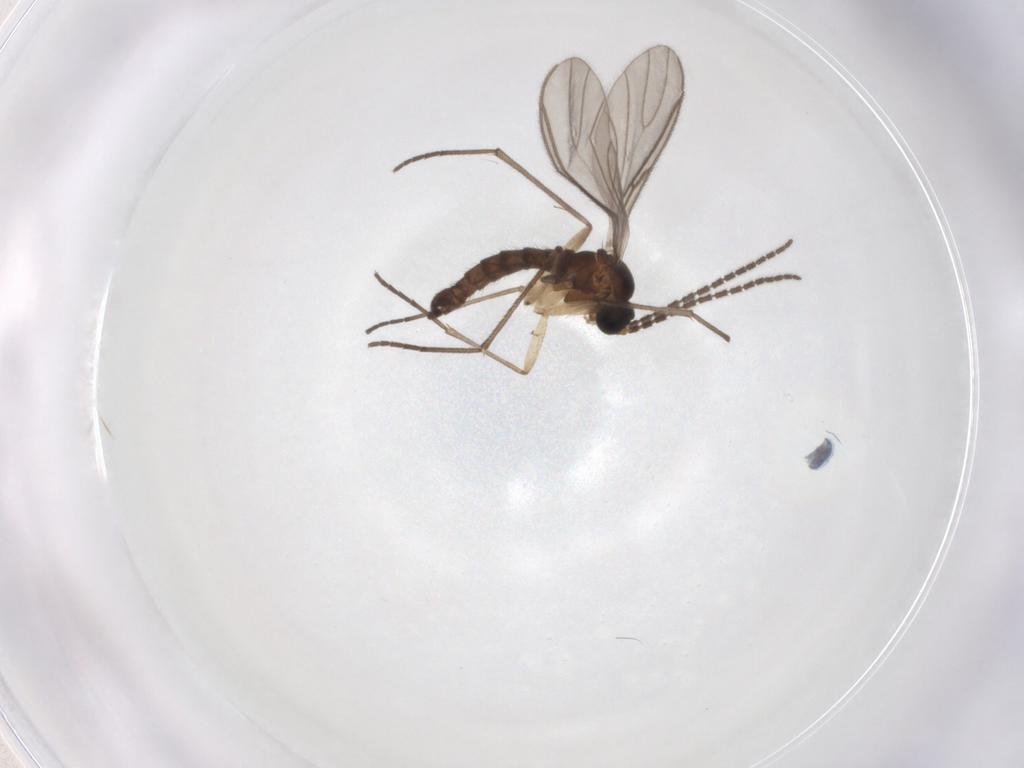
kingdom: Animalia
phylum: Arthropoda
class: Insecta
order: Diptera
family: Sciaridae
